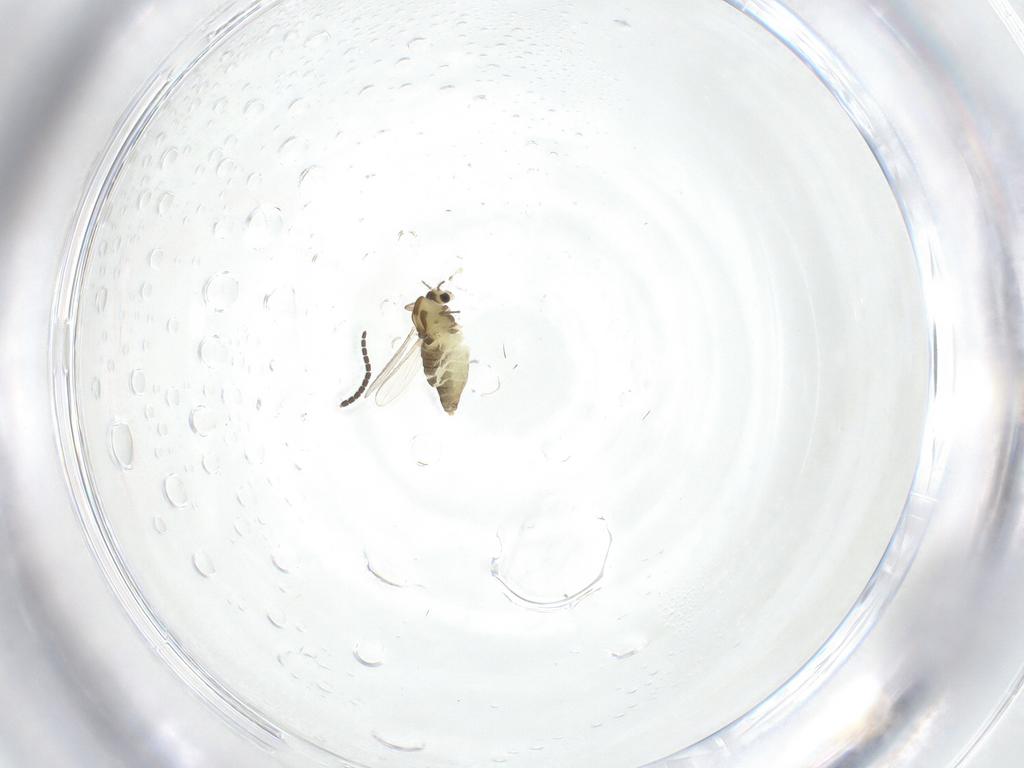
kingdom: Animalia
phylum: Arthropoda
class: Insecta
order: Diptera
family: Chironomidae
